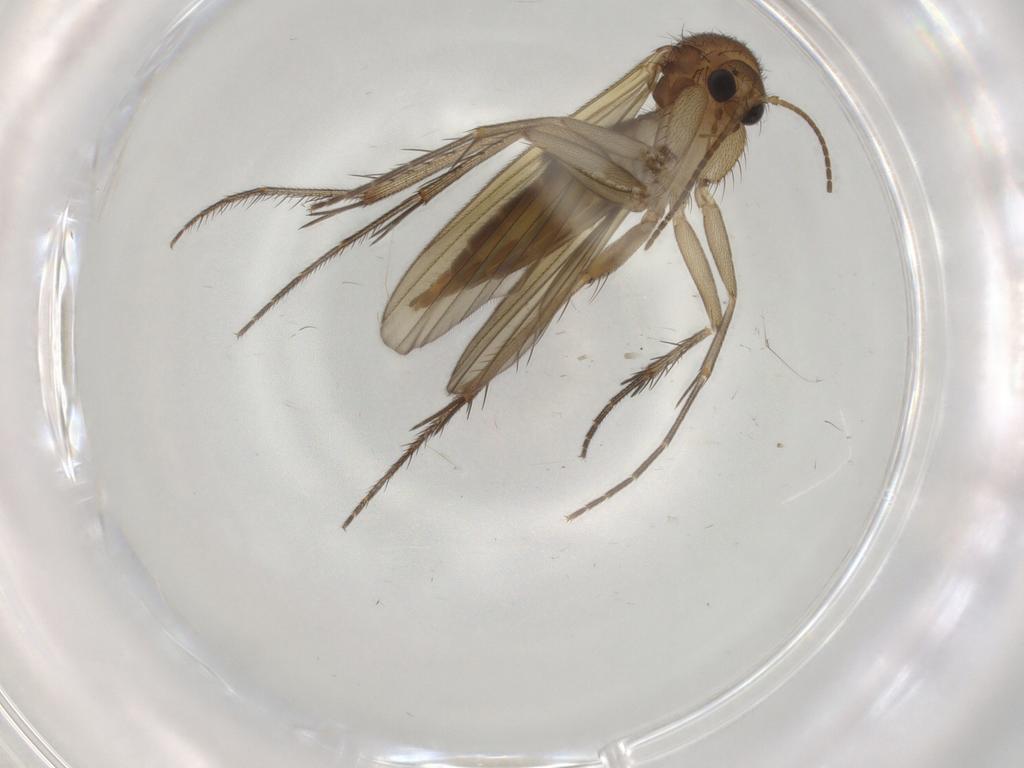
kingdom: Animalia
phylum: Arthropoda
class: Insecta
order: Diptera
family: Mycetophilidae
